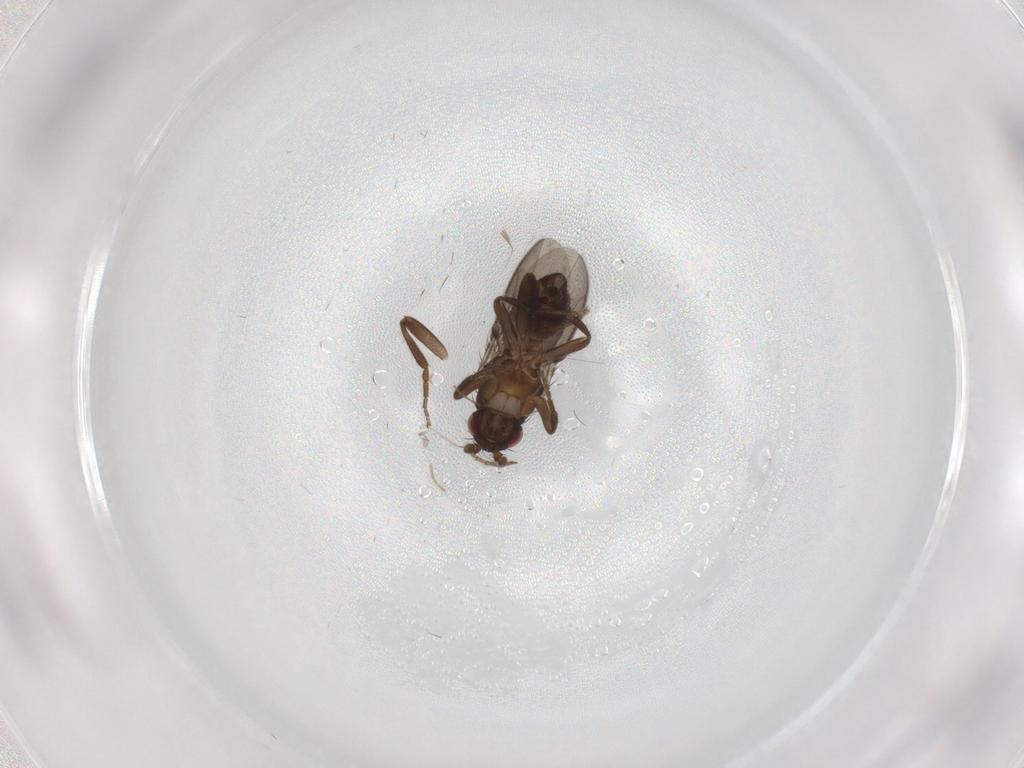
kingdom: Animalia
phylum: Arthropoda
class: Insecta
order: Diptera
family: Sphaeroceridae
